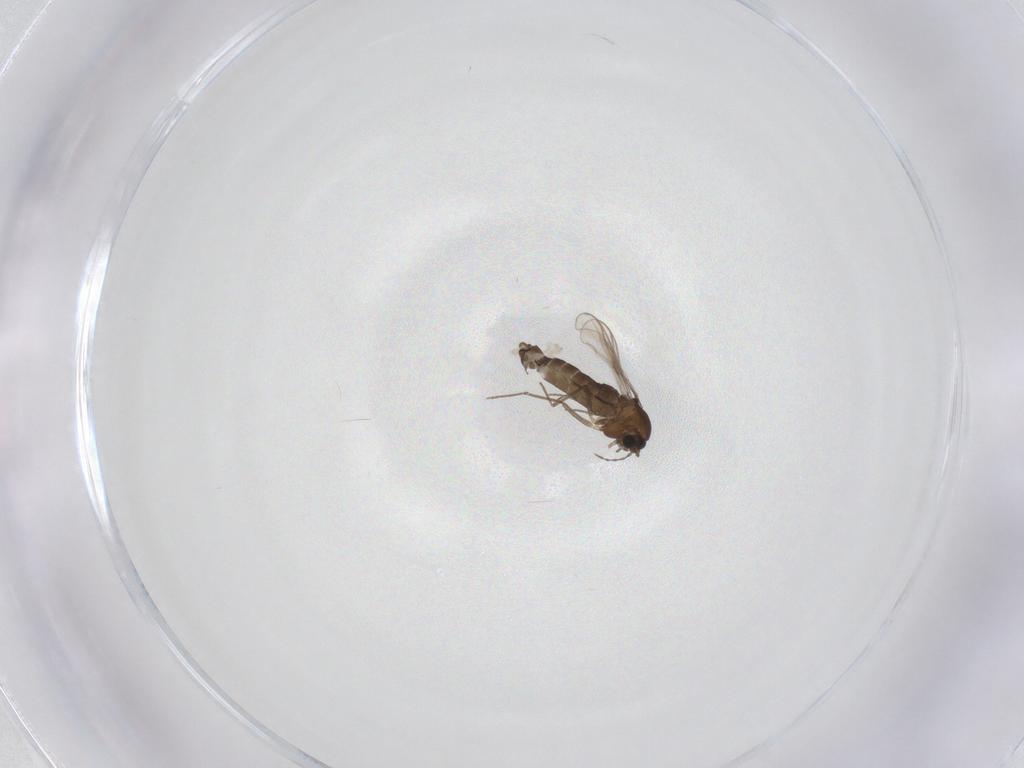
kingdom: Animalia
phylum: Arthropoda
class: Insecta
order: Diptera
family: Chironomidae
